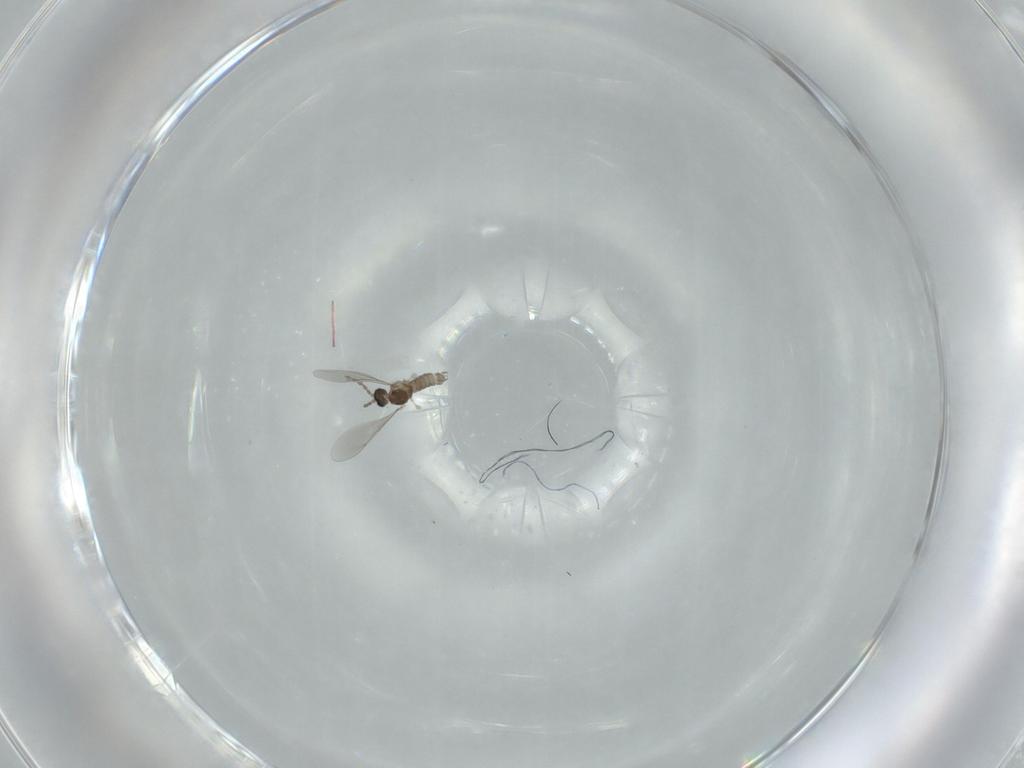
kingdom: Animalia
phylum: Arthropoda
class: Insecta
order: Diptera
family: Cecidomyiidae
